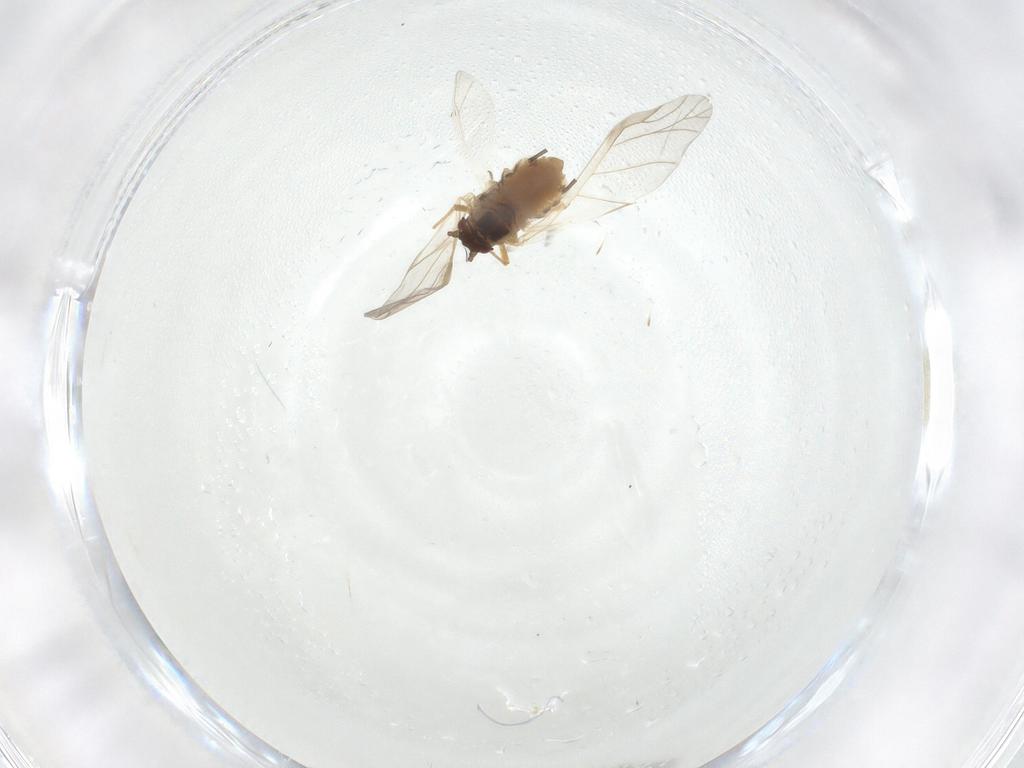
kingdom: Animalia
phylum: Arthropoda
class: Insecta
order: Hemiptera
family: Aphididae
